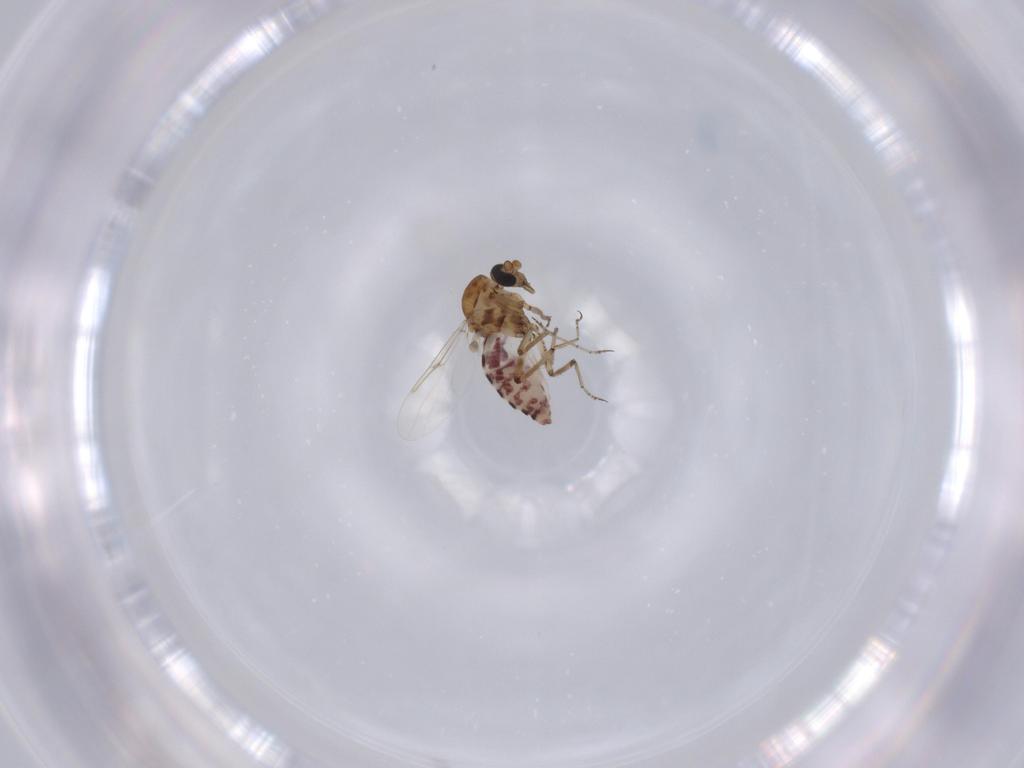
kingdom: Animalia
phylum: Arthropoda
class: Insecta
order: Diptera
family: Ceratopogonidae
